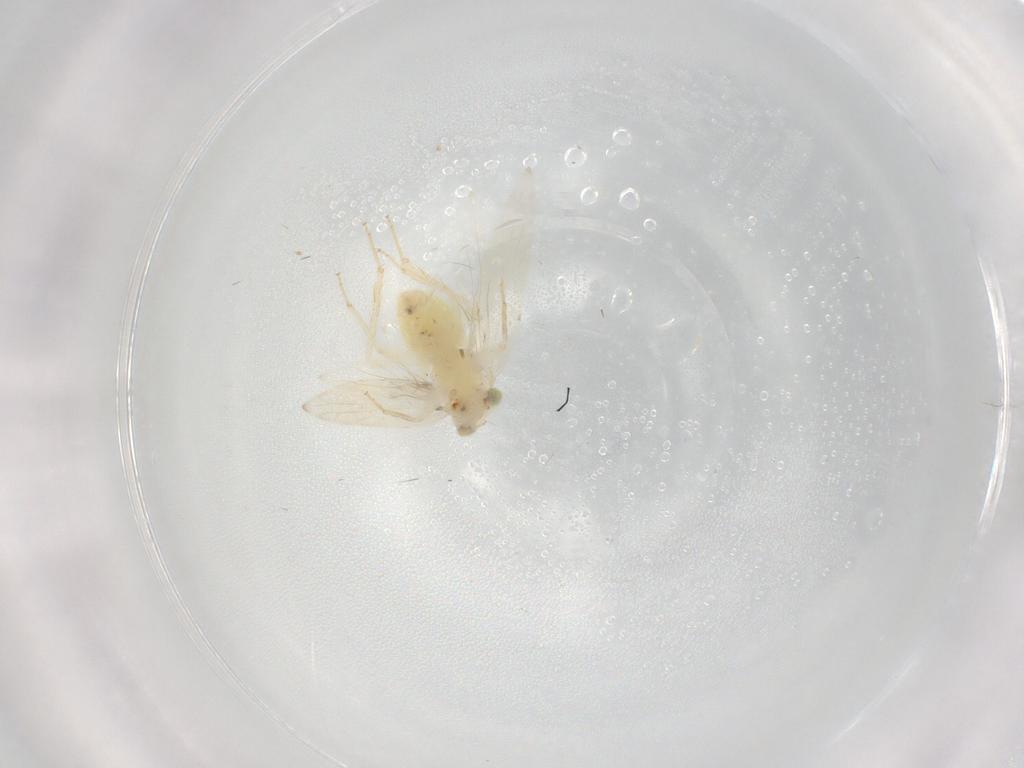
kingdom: Animalia
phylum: Arthropoda
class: Insecta
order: Psocodea
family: Lepidopsocidae
